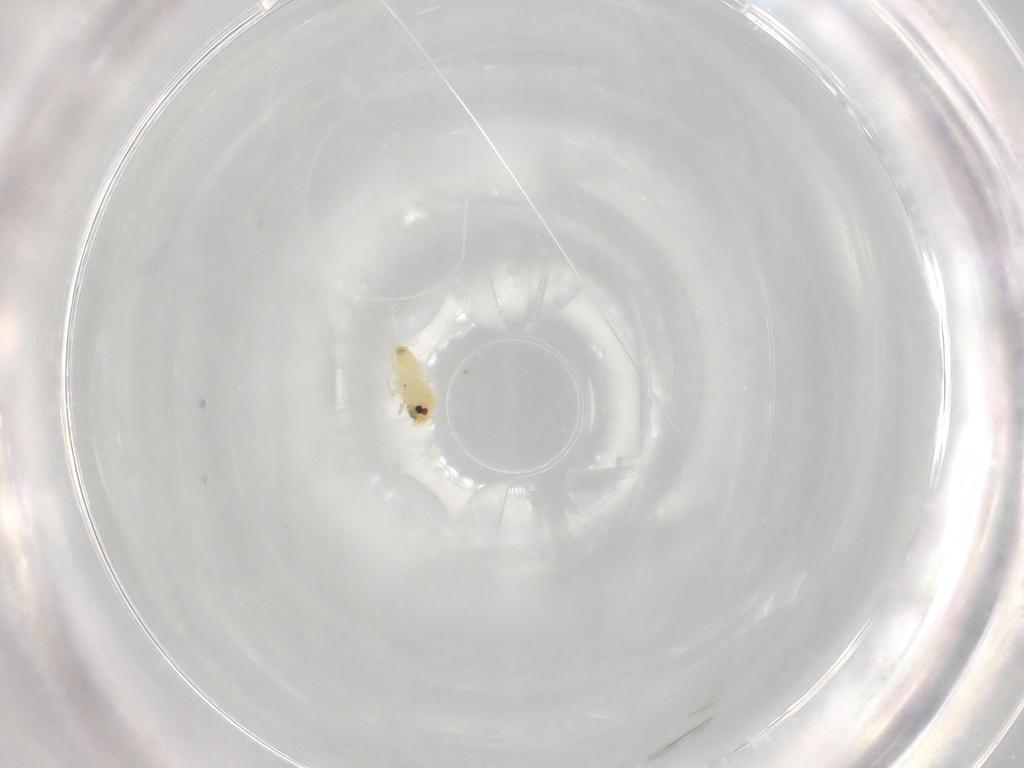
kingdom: Animalia
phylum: Arthropoda
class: Insecta
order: Hemiptera
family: Aleyrodidae
